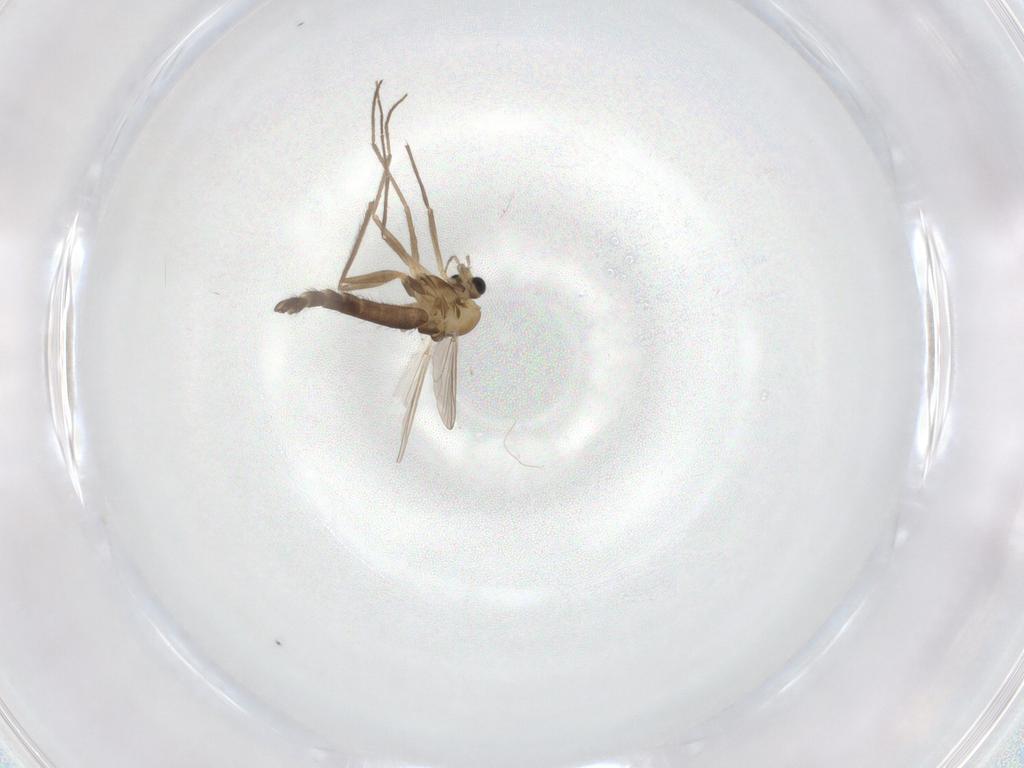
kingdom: Animalia
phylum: Arthropoda
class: Insecta
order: Diptera
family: Chironomidae
